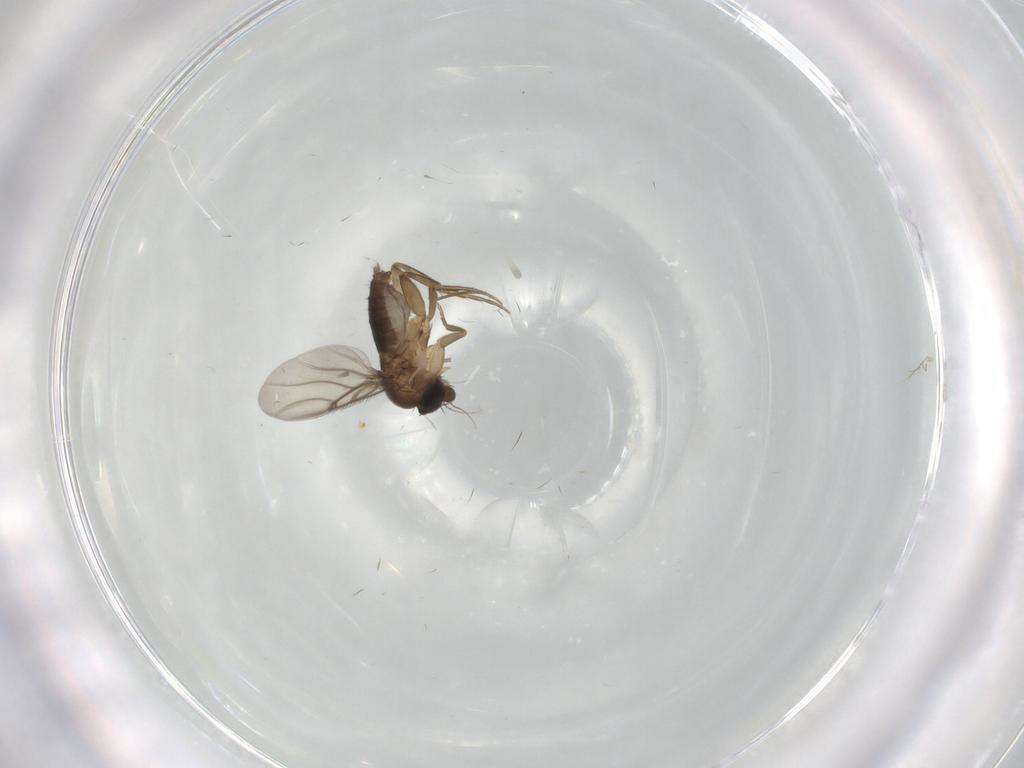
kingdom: Animalia
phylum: Arthropoda
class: Insecta
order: Diptera
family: Phoridae
